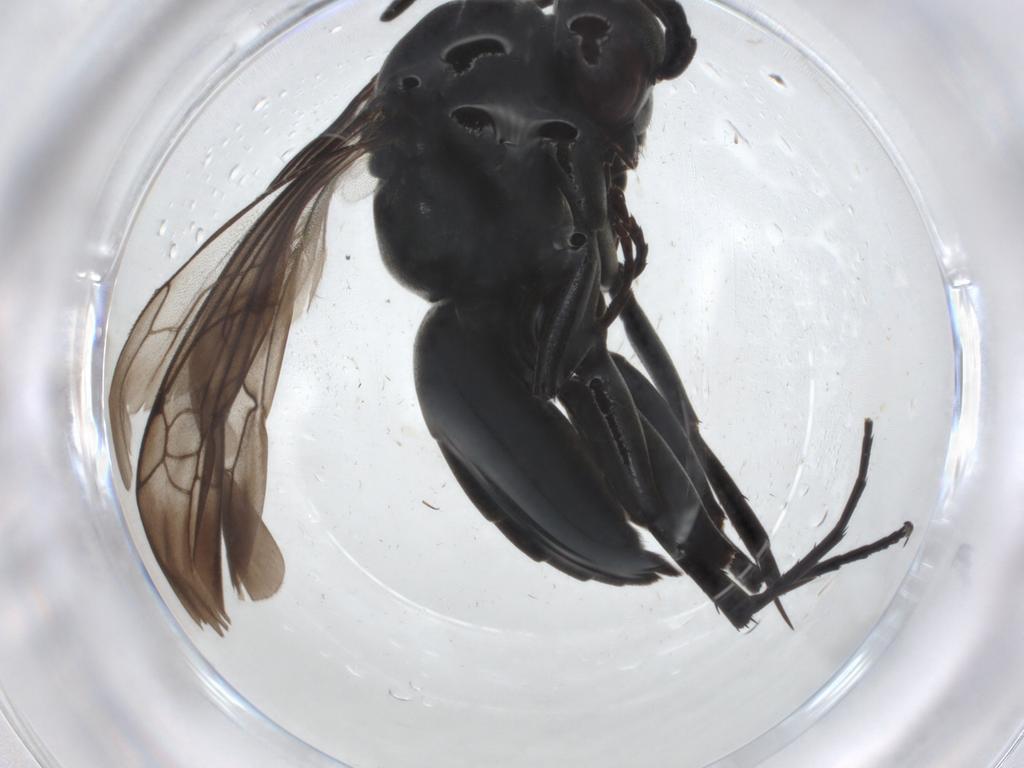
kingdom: Animalia
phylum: Arthropoda
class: Insecta
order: Hymenoptera
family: Pompilidae
